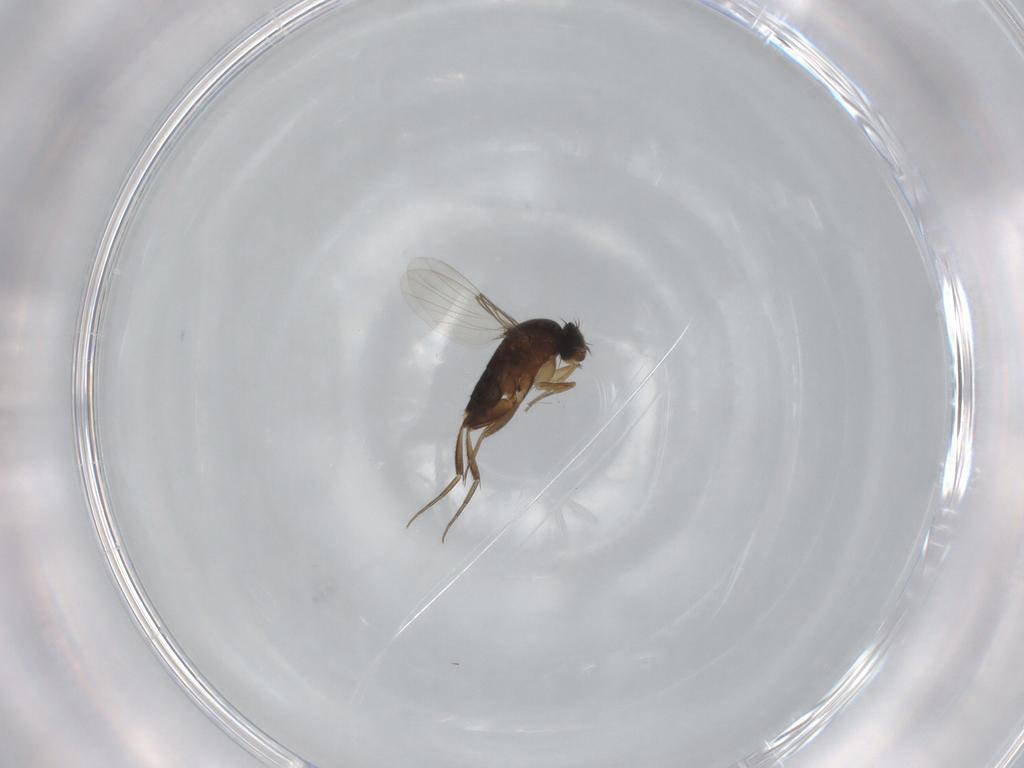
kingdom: Animalia
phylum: Arthropoda
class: Insecta
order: Diptera
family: Phoridae
